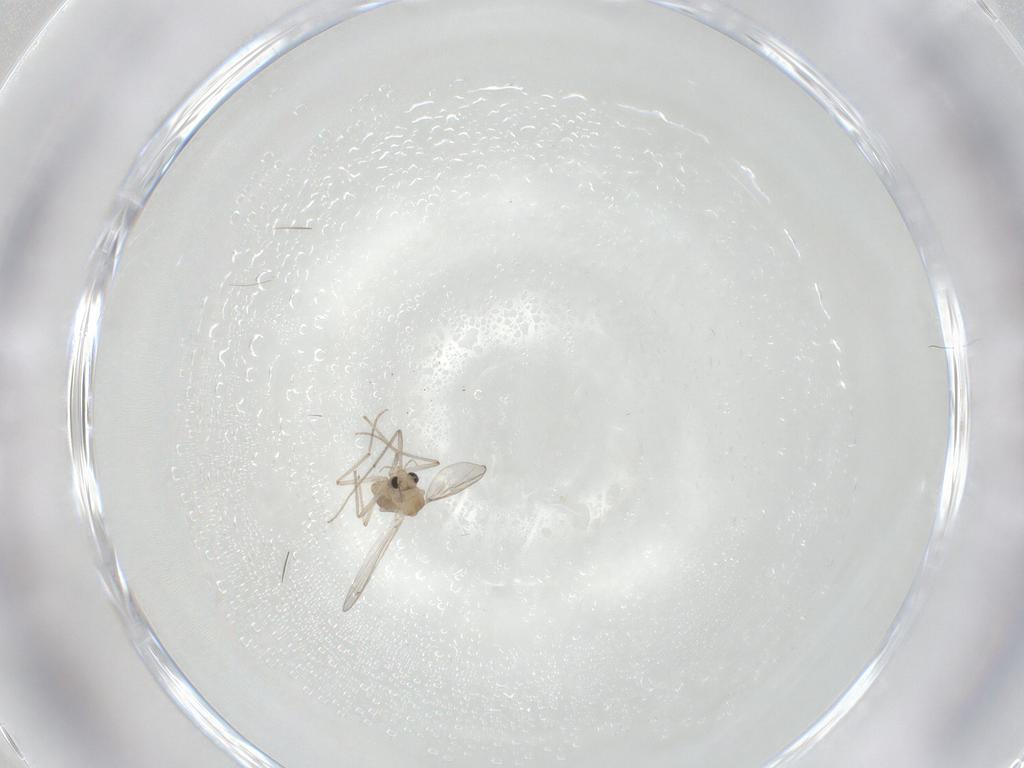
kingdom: Animalia
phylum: Arthropoda
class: Insecta
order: Diptera
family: Chironomidae
